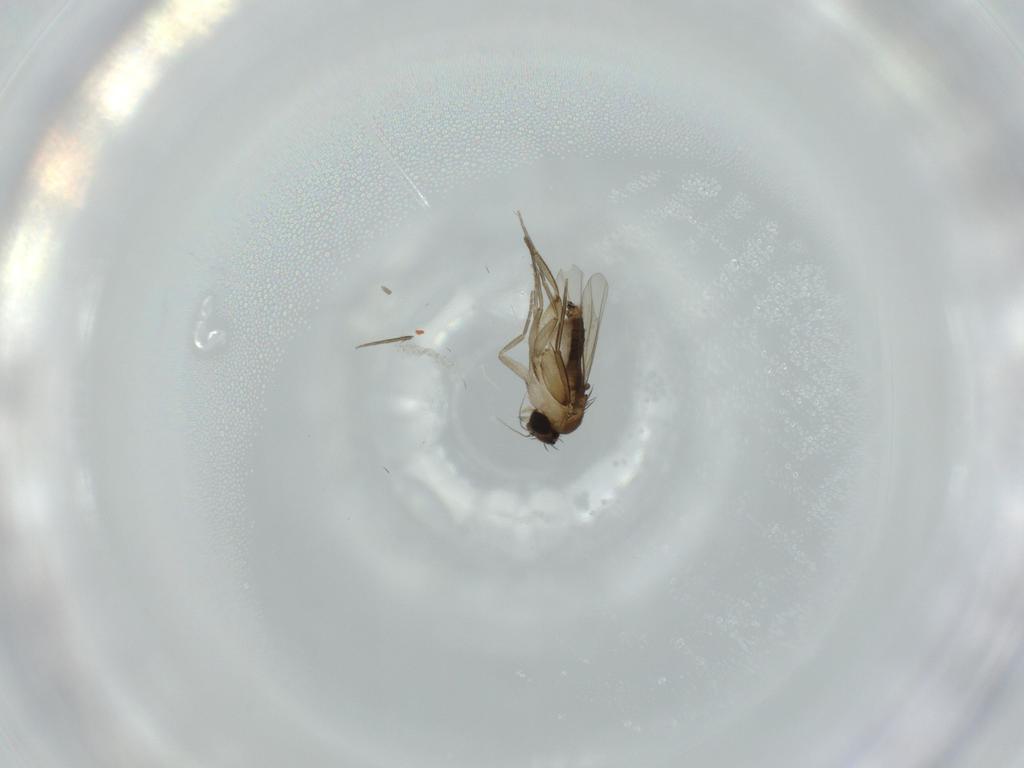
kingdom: Animalia
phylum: Arthropoda
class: Insecta
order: Diptera
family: Phoridae
